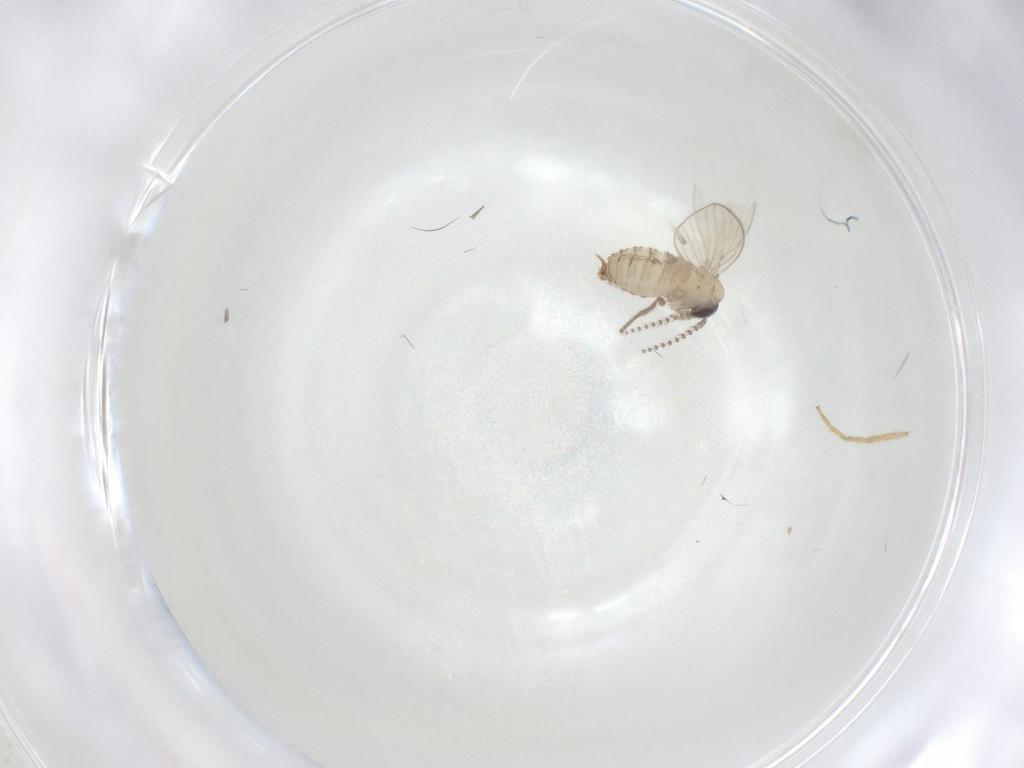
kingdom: Animalia
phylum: Arthropoda
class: Insecta
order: Diptera
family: Psychodidae
